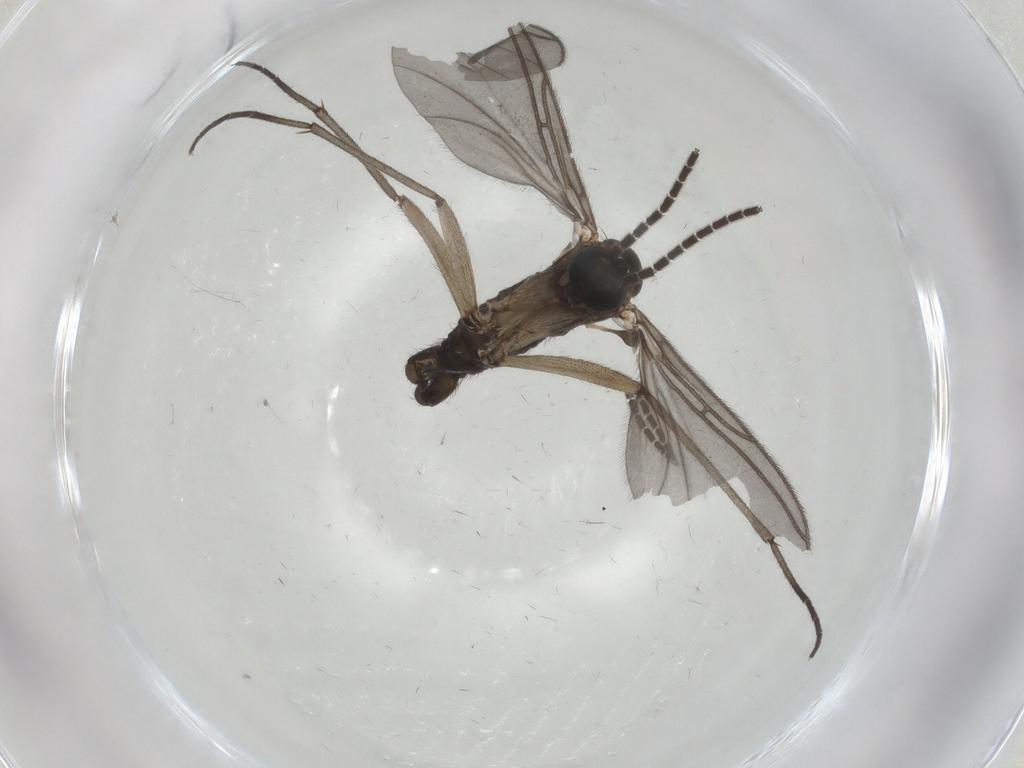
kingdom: Animalia
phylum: Arthropoda
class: Insecta
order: Diptera
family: Sciaridae
